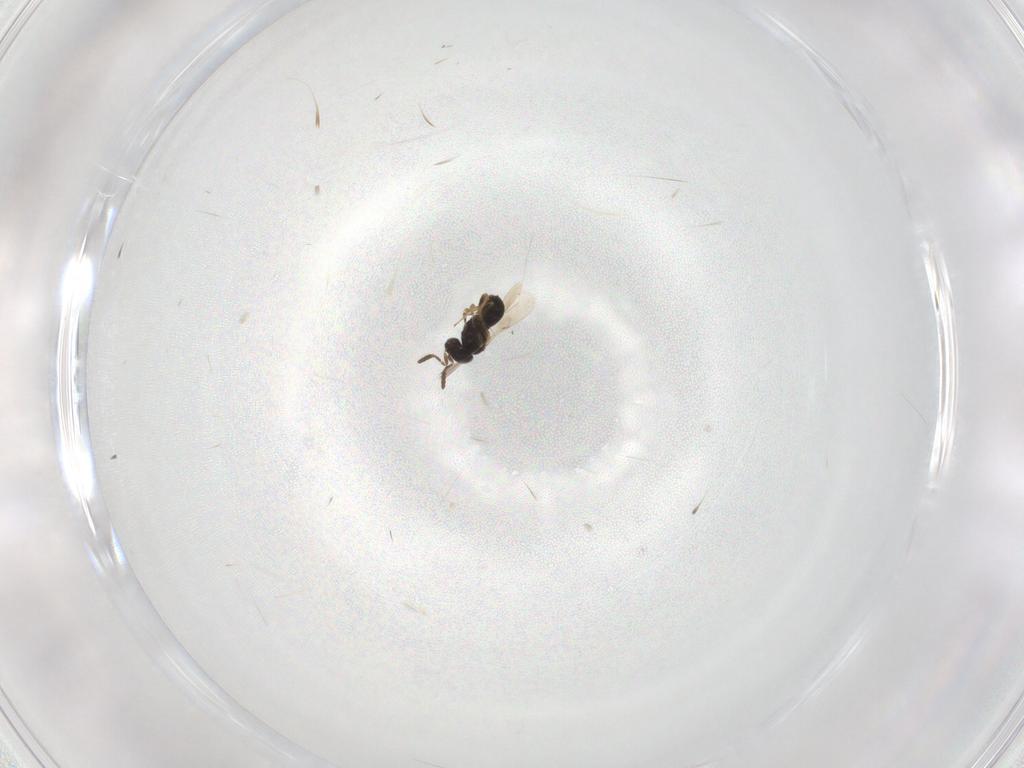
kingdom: Animalia
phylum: Arthropoda
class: Insecta
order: Hymenoptera
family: Scelionidae
